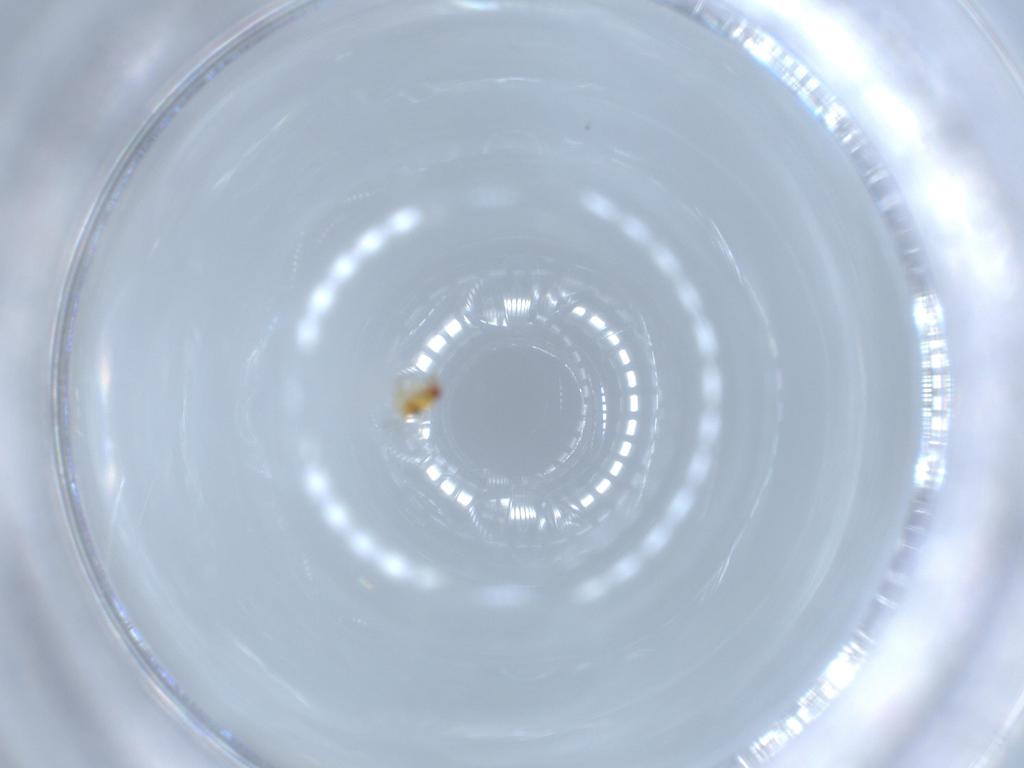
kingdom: Animalia
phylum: Arthropoda
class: Insecta
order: Hymenoptera
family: Trichogrammatidae
